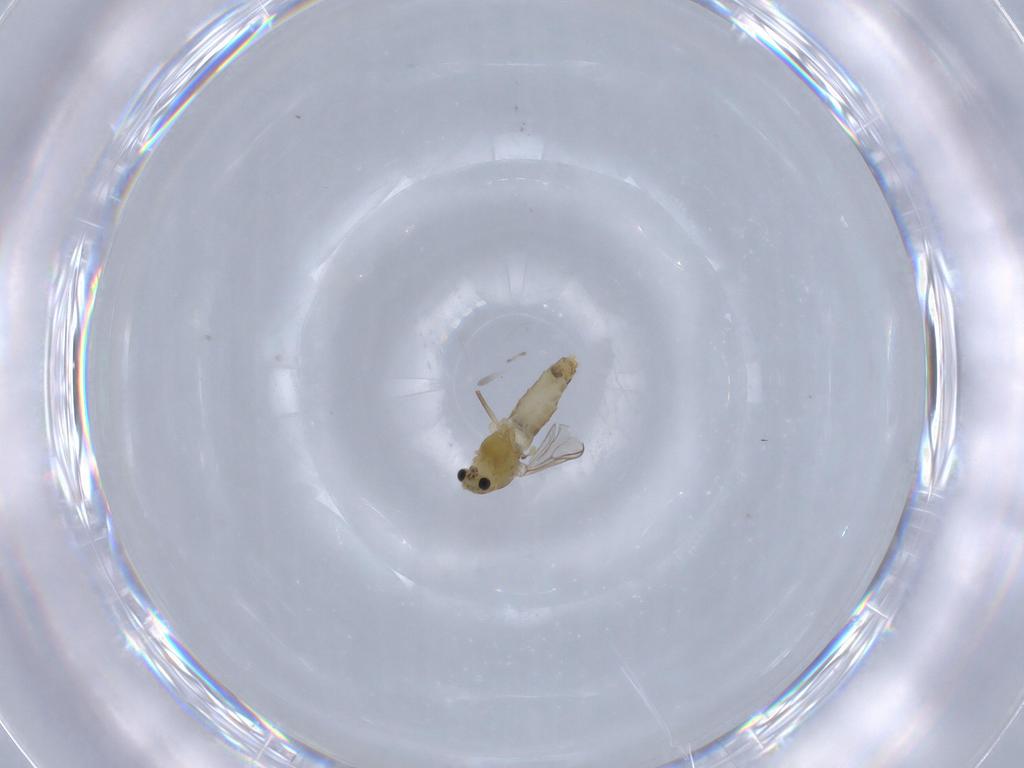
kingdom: Animalia
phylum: Arthropoda
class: Insecta
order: Diptera
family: Chironomidae
